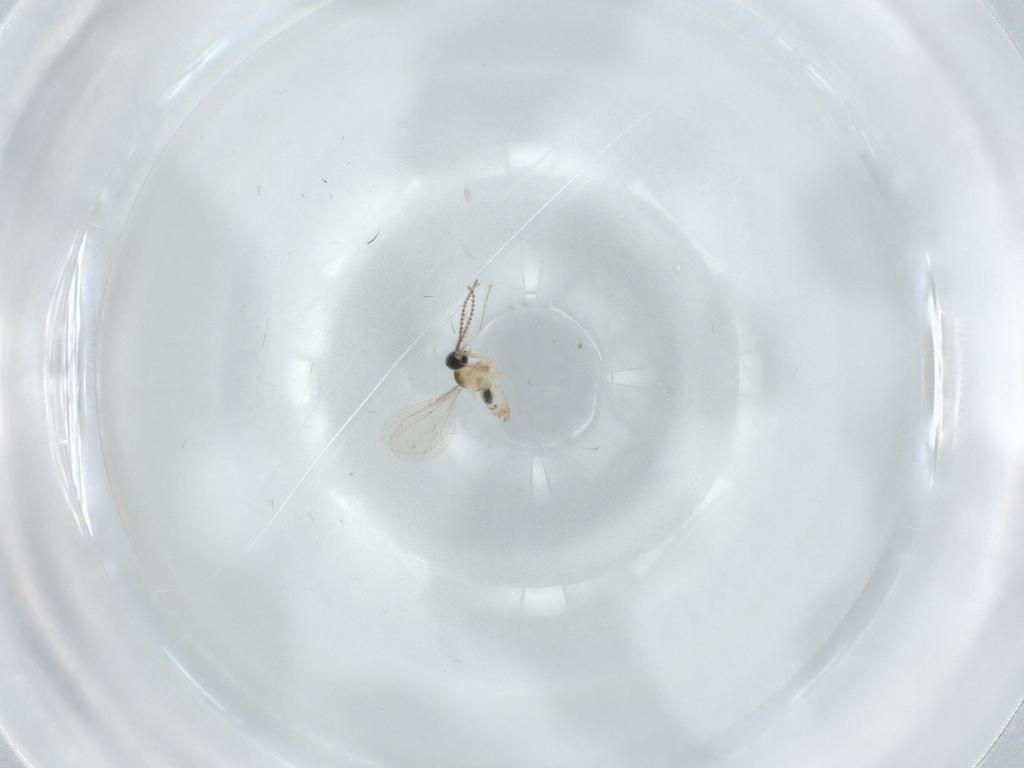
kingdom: Animalia
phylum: Arthropoda
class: Insecta
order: Diptera
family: Cecidomyiidae
